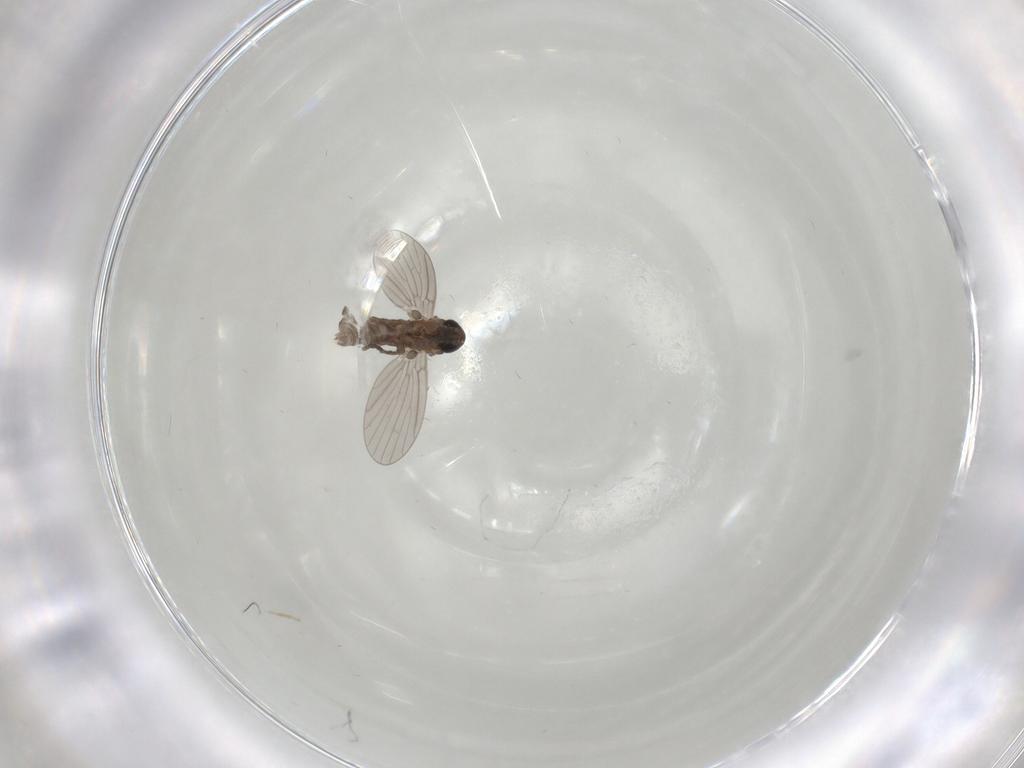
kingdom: Animalia
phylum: Arthropoda
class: Insecta
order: Diptera
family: Psychodidae
